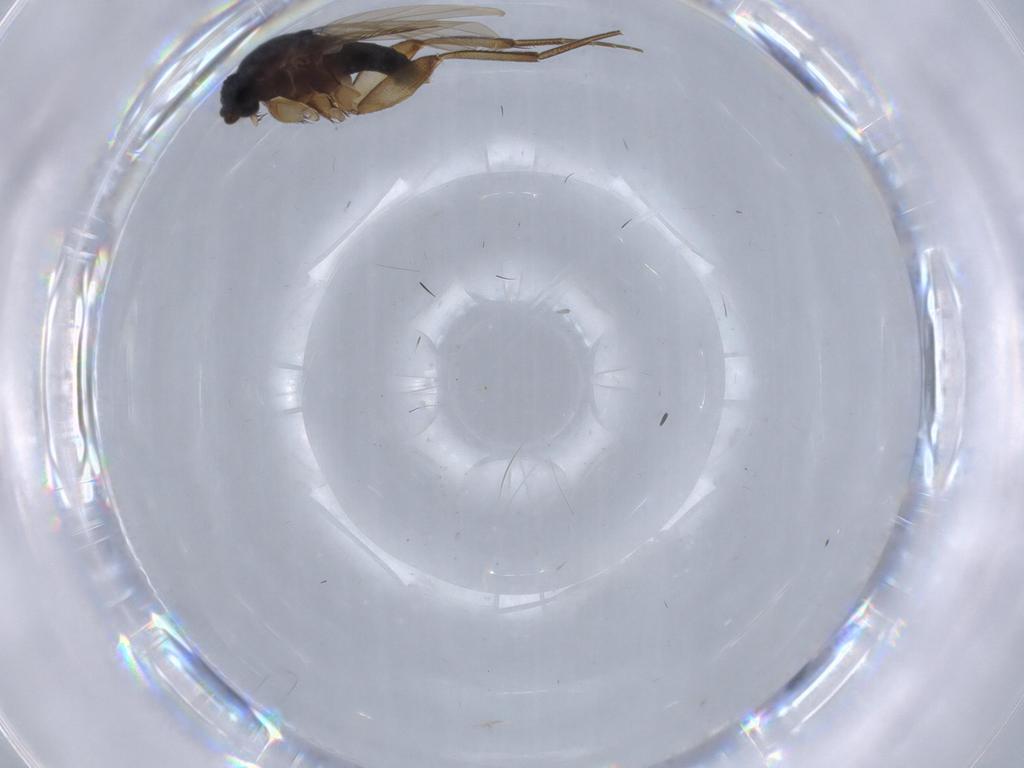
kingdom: Animalia
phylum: Arthropoda
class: Insecta
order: Diptera
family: Phoridae
